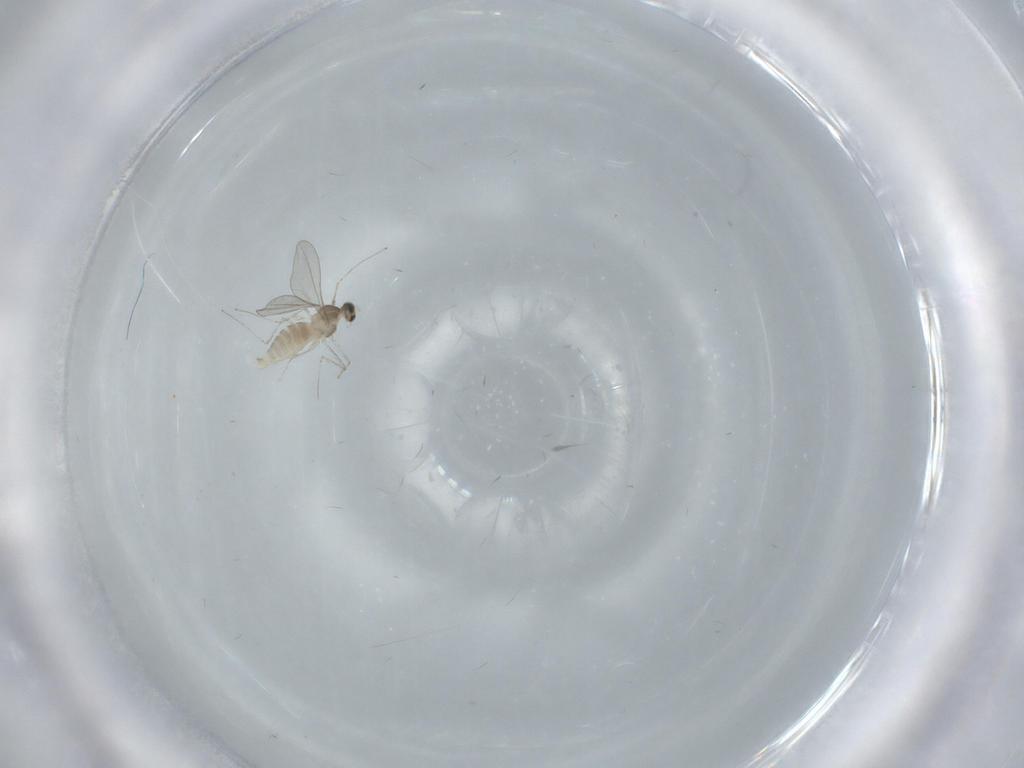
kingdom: Animalia
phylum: Arthropoda
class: Insecta
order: Diptera
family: Cecidomyiidae
